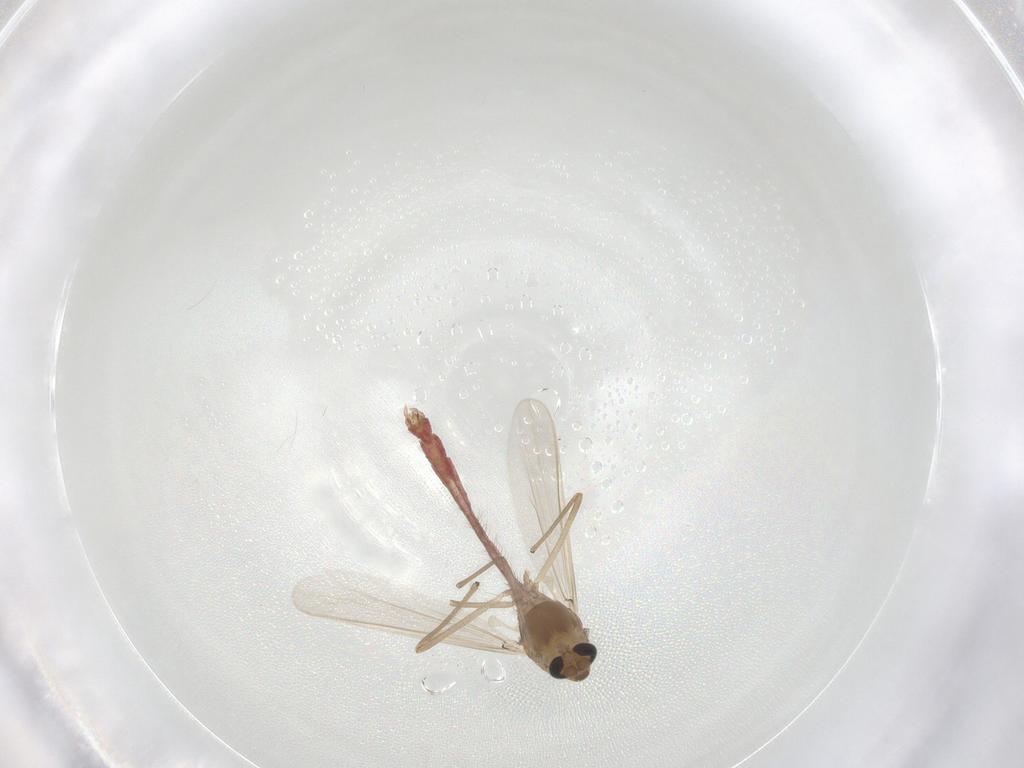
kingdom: Animalia
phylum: Arthropoda
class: Insecta
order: Diptera
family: Chironomidae
